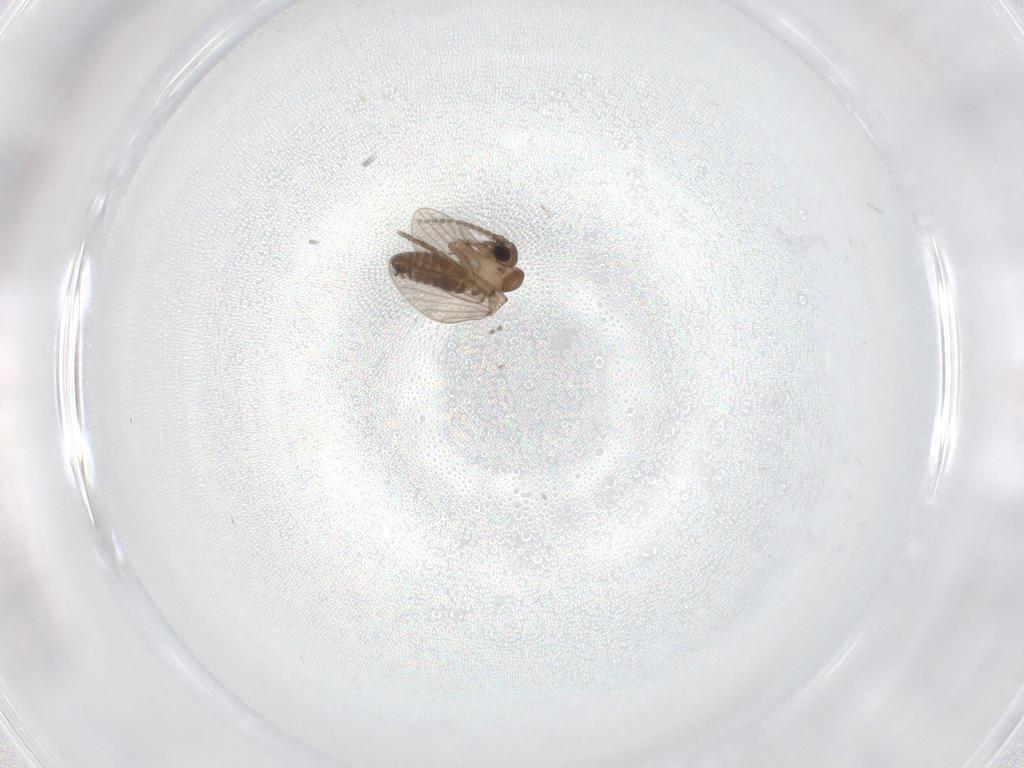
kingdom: Animalia
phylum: Arthropoda
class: Insecta
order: Diptera
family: Psychodidae
